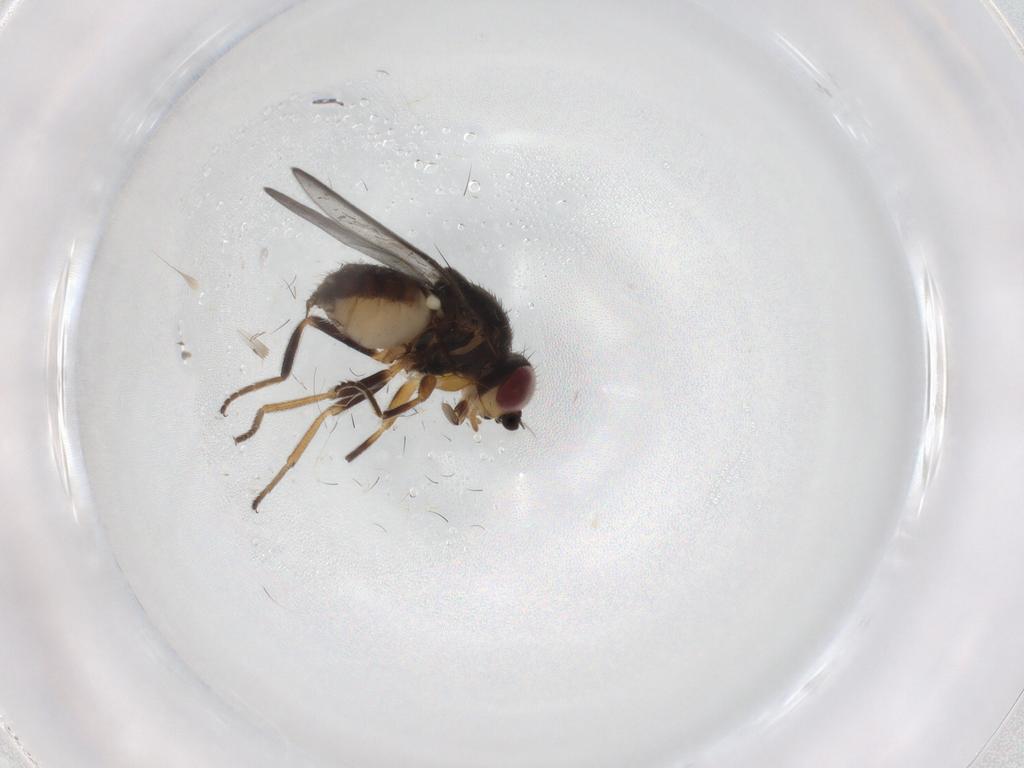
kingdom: Animalia
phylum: Arthropoda
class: Insecta
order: Diptera
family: Chloropidae
